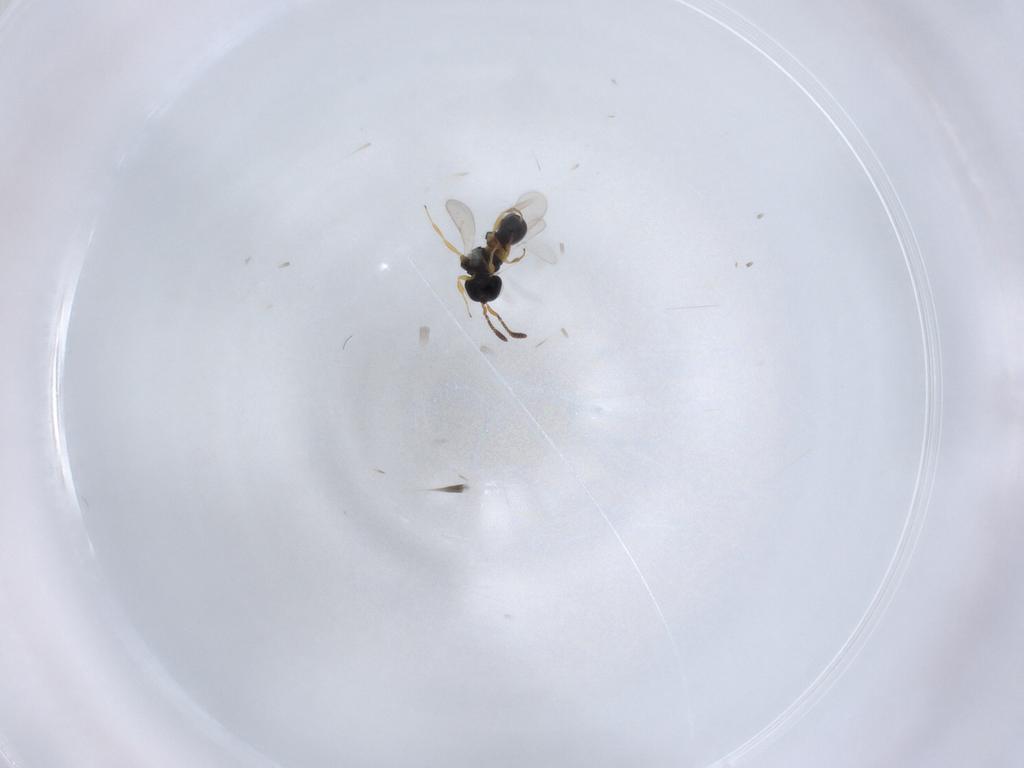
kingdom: Animalia
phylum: Arthropoda
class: Insecta
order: Hymenoptera
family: Scelionidae
